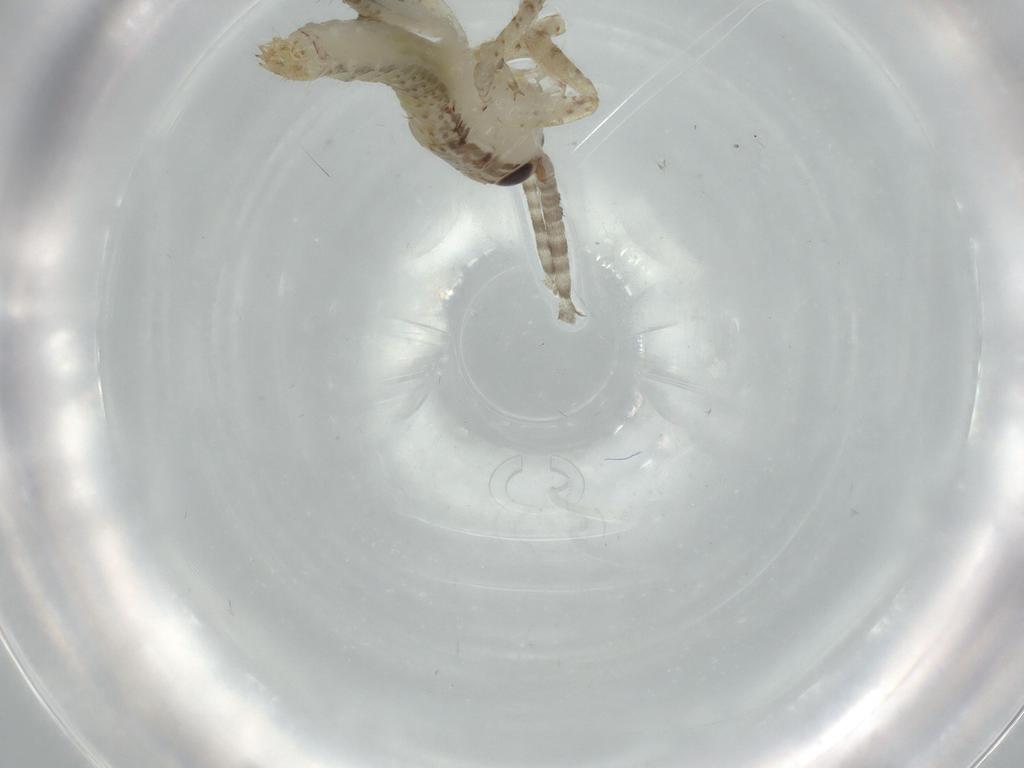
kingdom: Animalia
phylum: Arthropoda
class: Insecta
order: Orthoptera
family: Gryllidae
